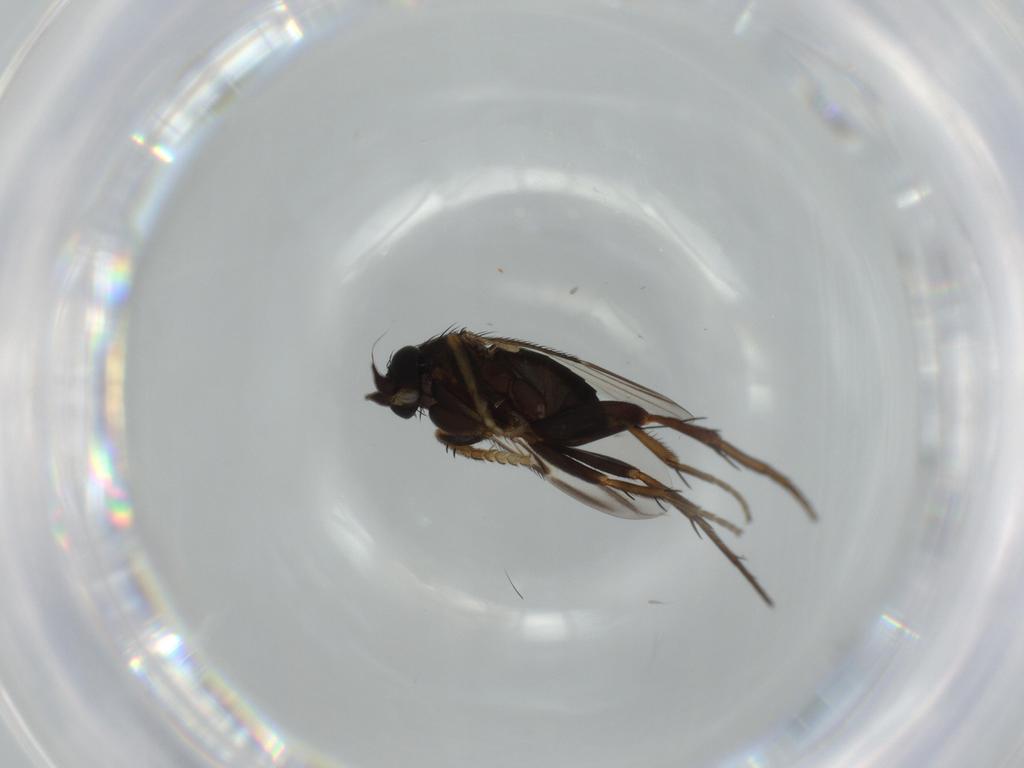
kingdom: Animalia
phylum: Arthropoda
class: Insecta
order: Diptera
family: Phoridae
